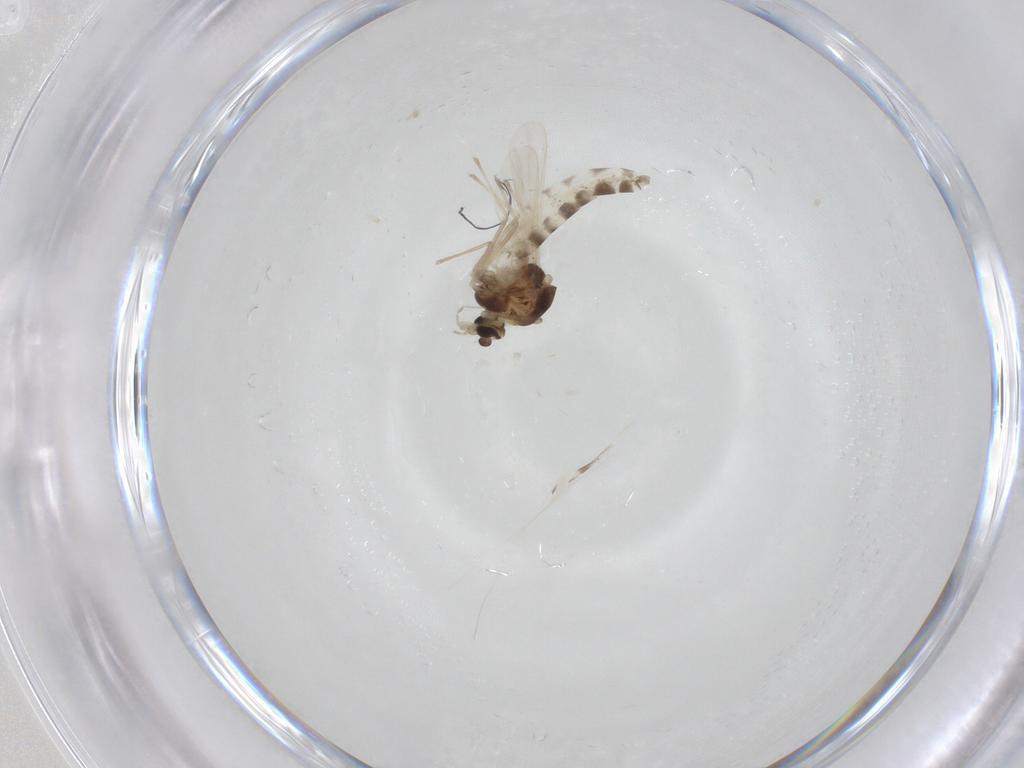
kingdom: Animalia
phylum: Arthropoda
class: Insecta
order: Diptera
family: Chironomidae
